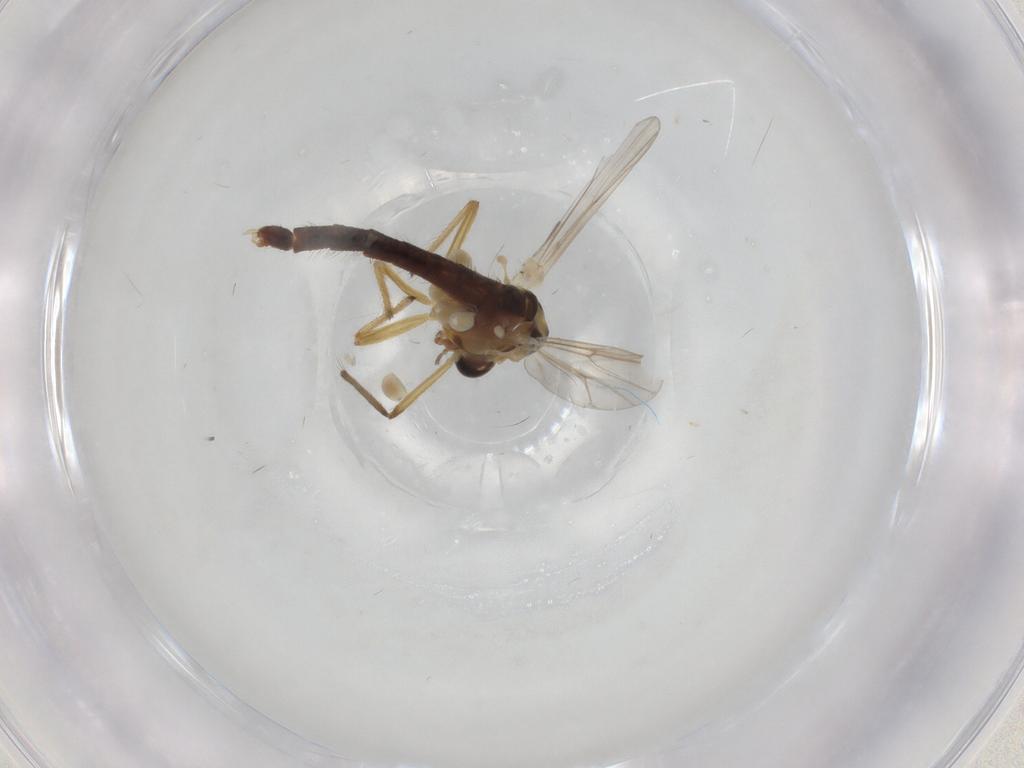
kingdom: Animalia
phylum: Arthropoda
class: Insecta
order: Diptera
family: Chironomidae
